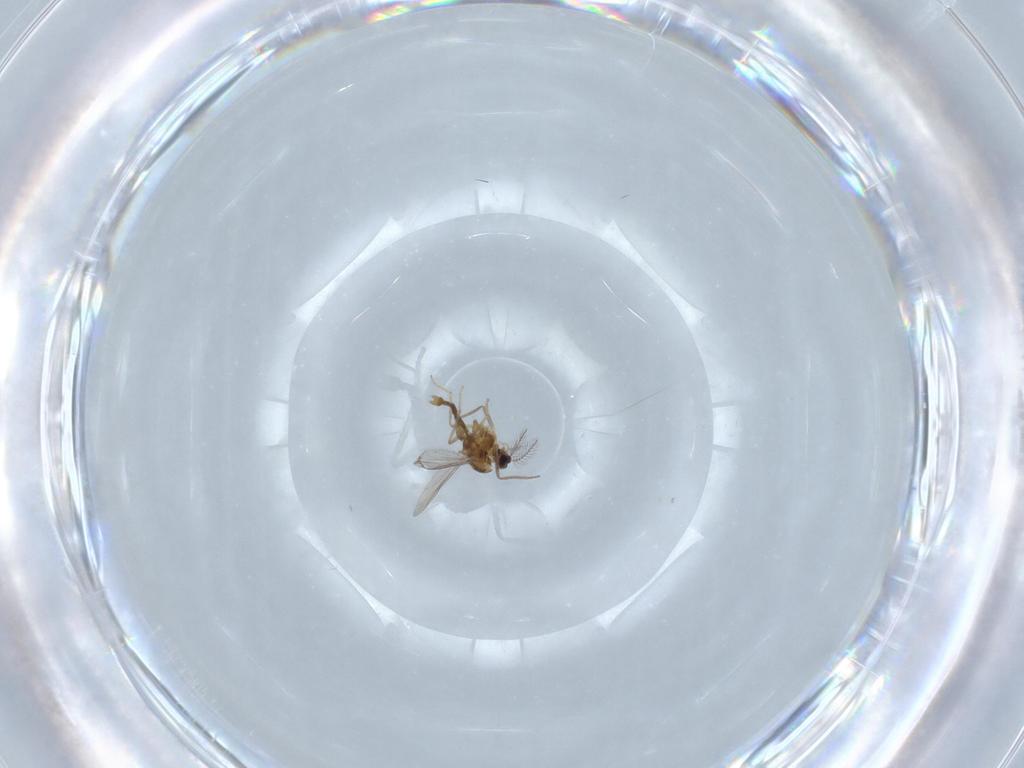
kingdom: Animalia
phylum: Arthropoda
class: Insecta
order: Diptera
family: Chironomidae
